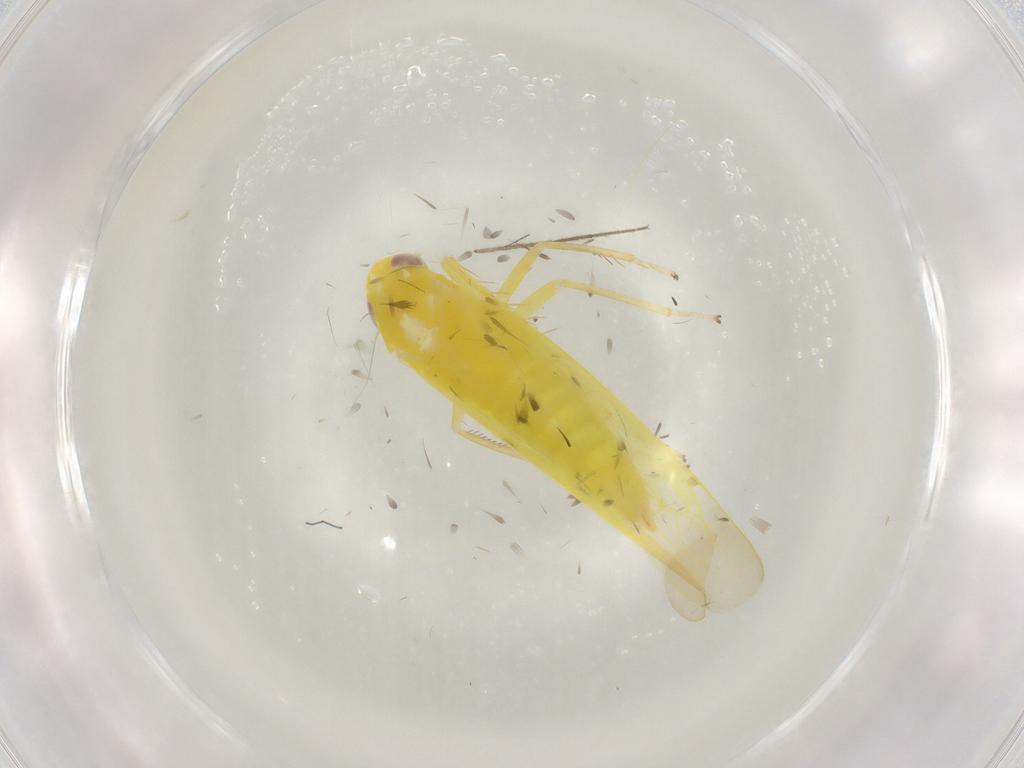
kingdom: Animalia
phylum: Arthropoda
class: Insecta
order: Hemiptera
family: Cicadellidae
